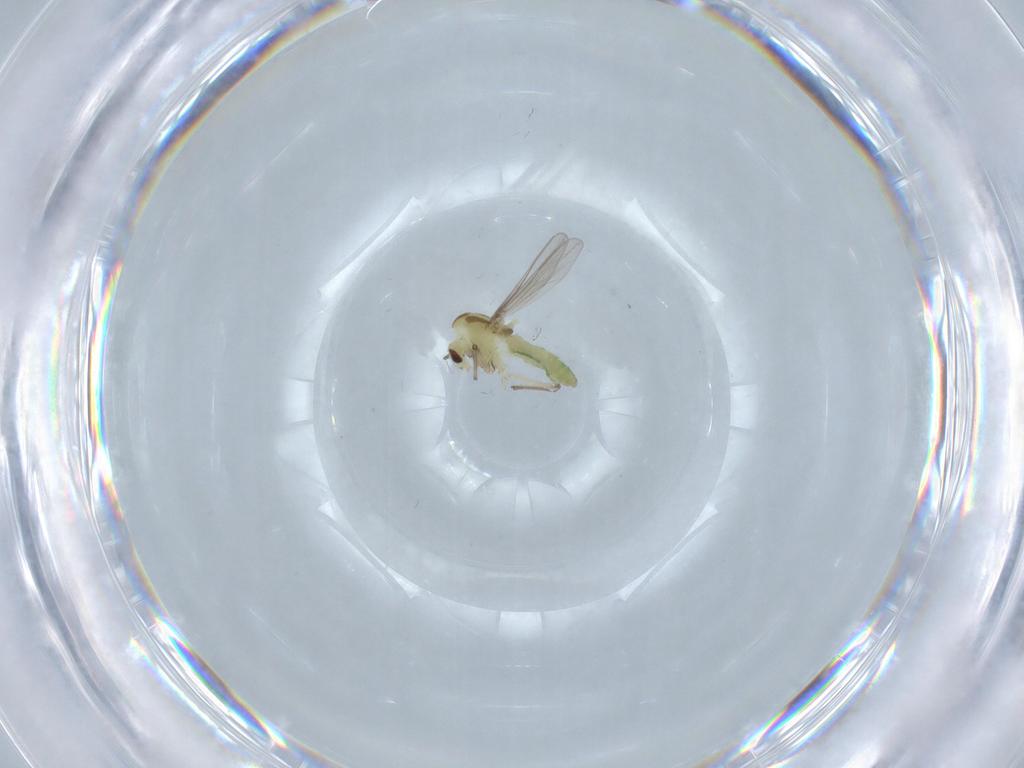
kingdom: Animalia
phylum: Arthropoda
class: Insecta
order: Diptera
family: Chironomidae
